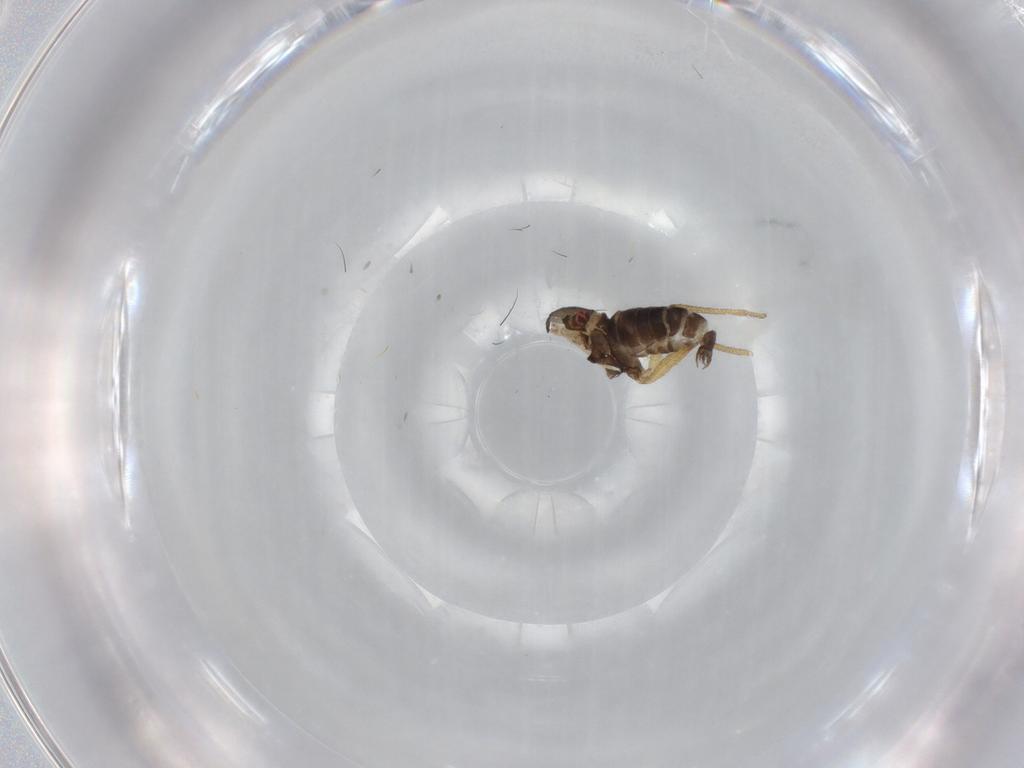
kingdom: Animalia
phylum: Arthropoda
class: Insecta
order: Diptera
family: Dolichopodidae
